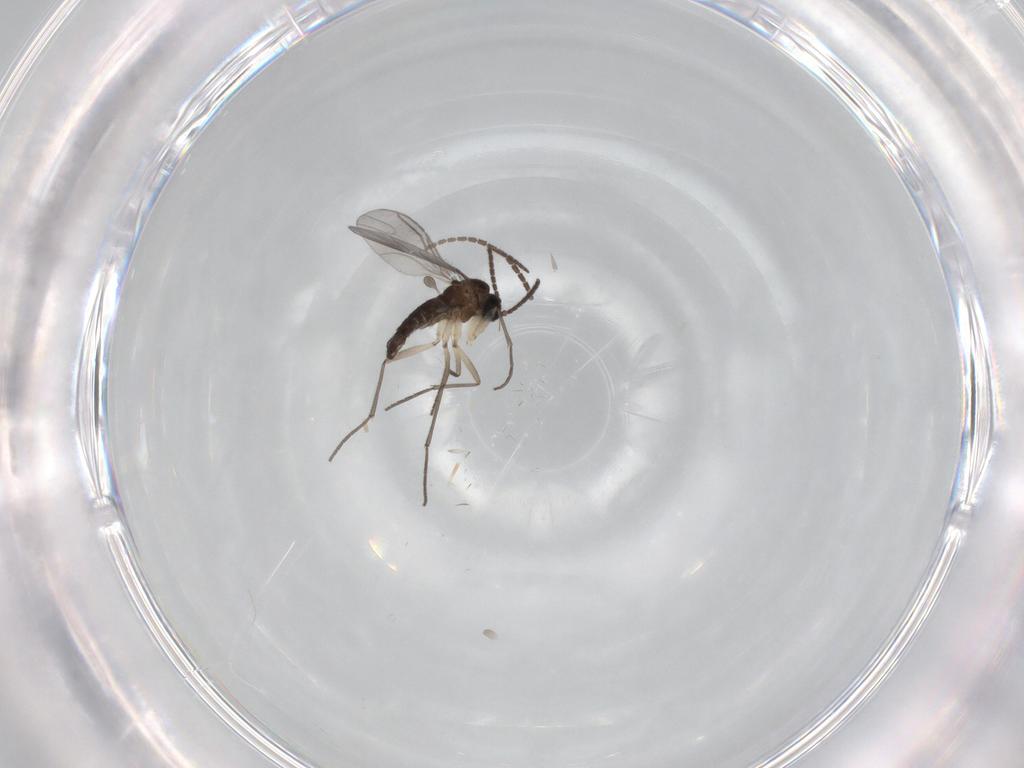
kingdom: Animalia
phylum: Arthropoda
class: Insecta
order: Diptera
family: Sciaridae
